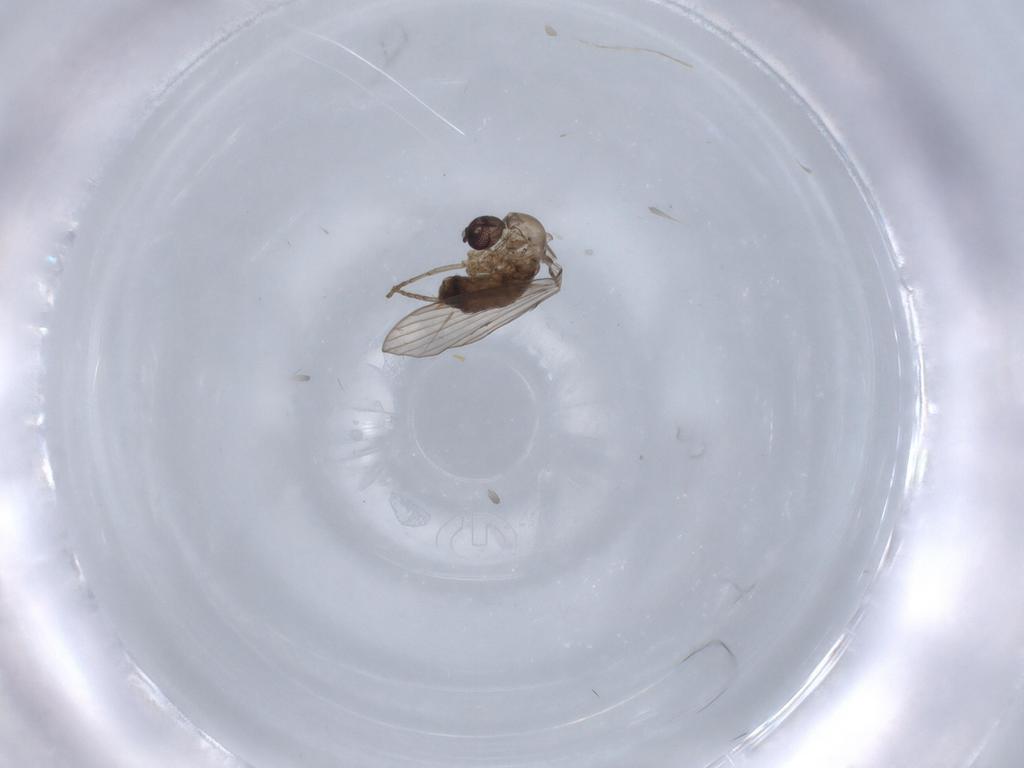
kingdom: Animalia
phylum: Arthropoda
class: Insecta
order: Diptera
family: Psychodidae
